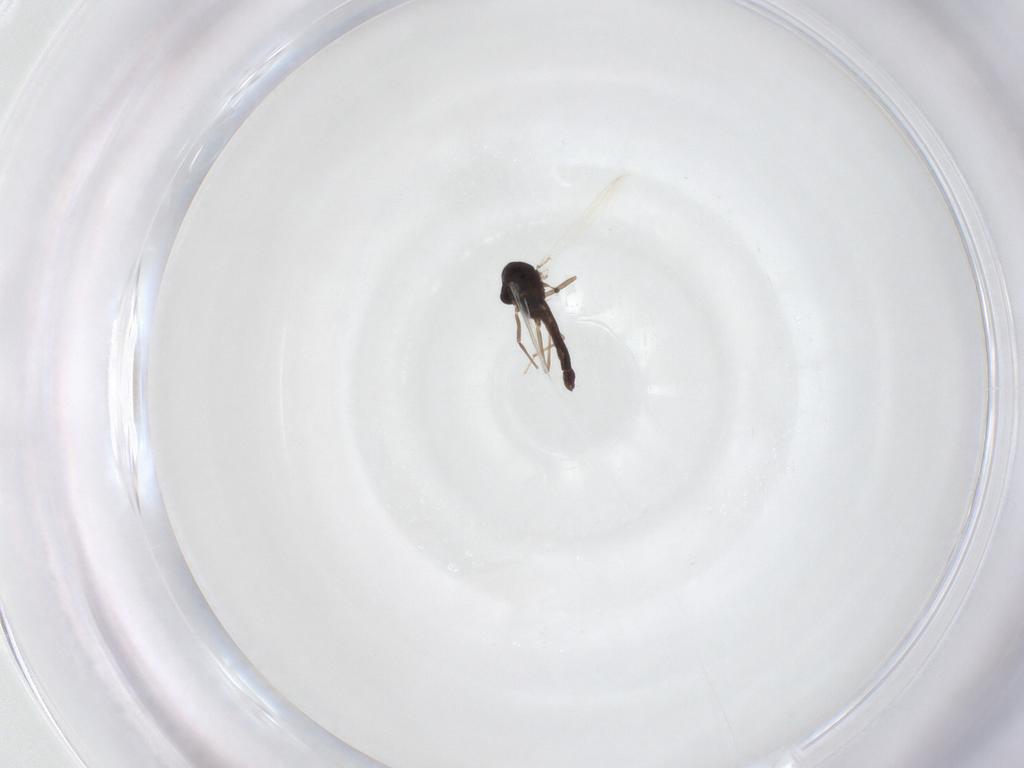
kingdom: Animalia
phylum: Arthropoda
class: Insecta
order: Diptera
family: Chironomidae
